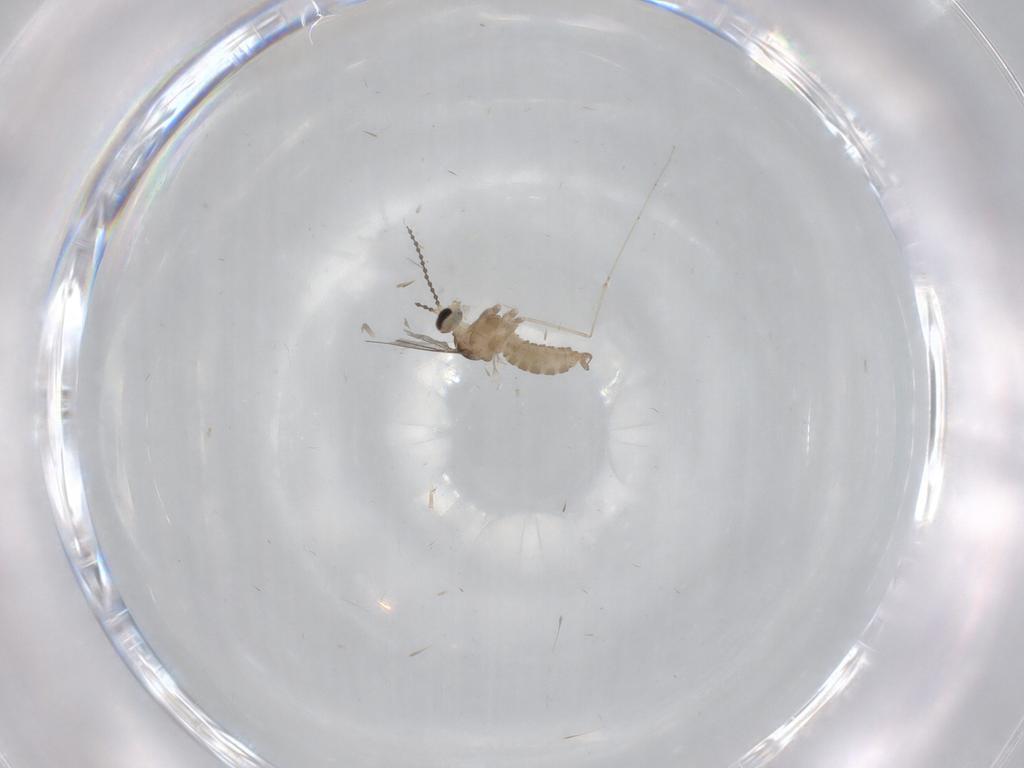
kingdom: Animalia
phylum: Arthropoda
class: Insecta
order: Diptera
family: Cecidomyiidae
